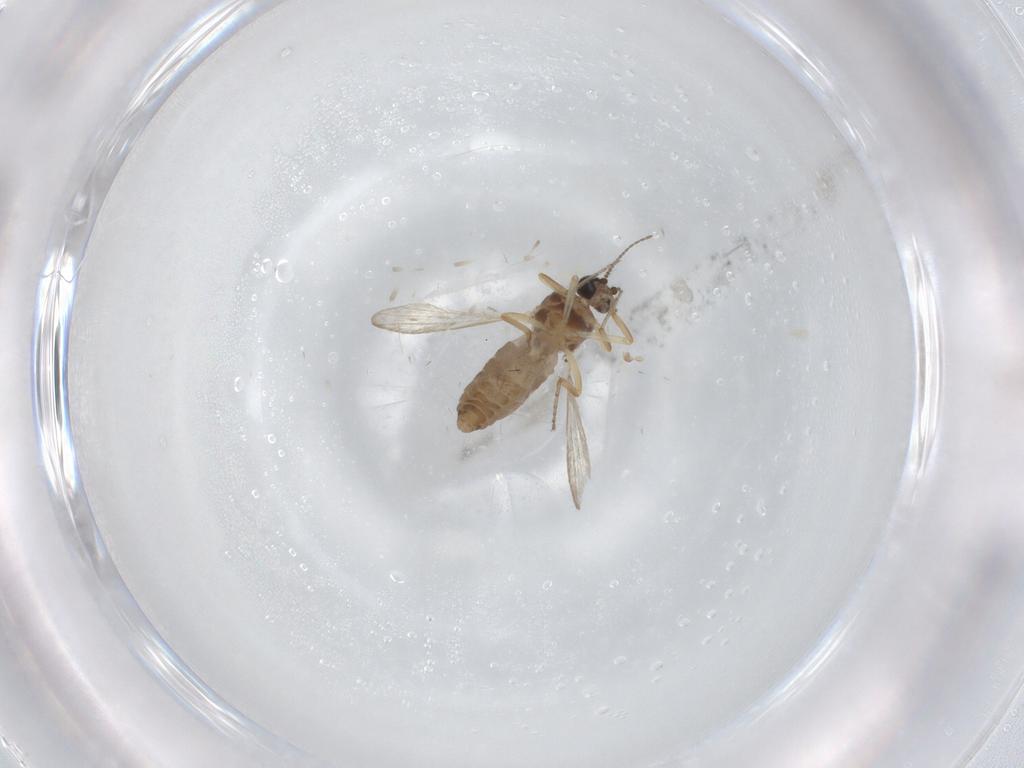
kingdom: Animalia
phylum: Arthropoda
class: Insecta
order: Diptera
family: Ceratopogonidae
